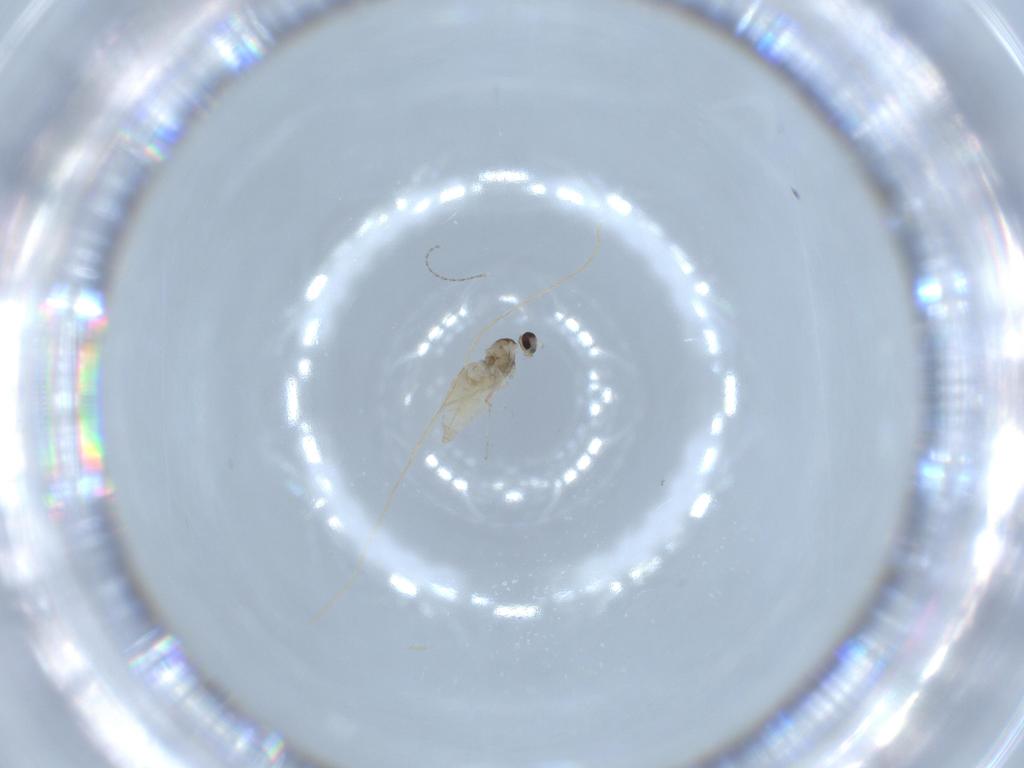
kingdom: Animalia
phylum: Arthropoda
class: Insecta
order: Diptera
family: Cecidomyiidae
